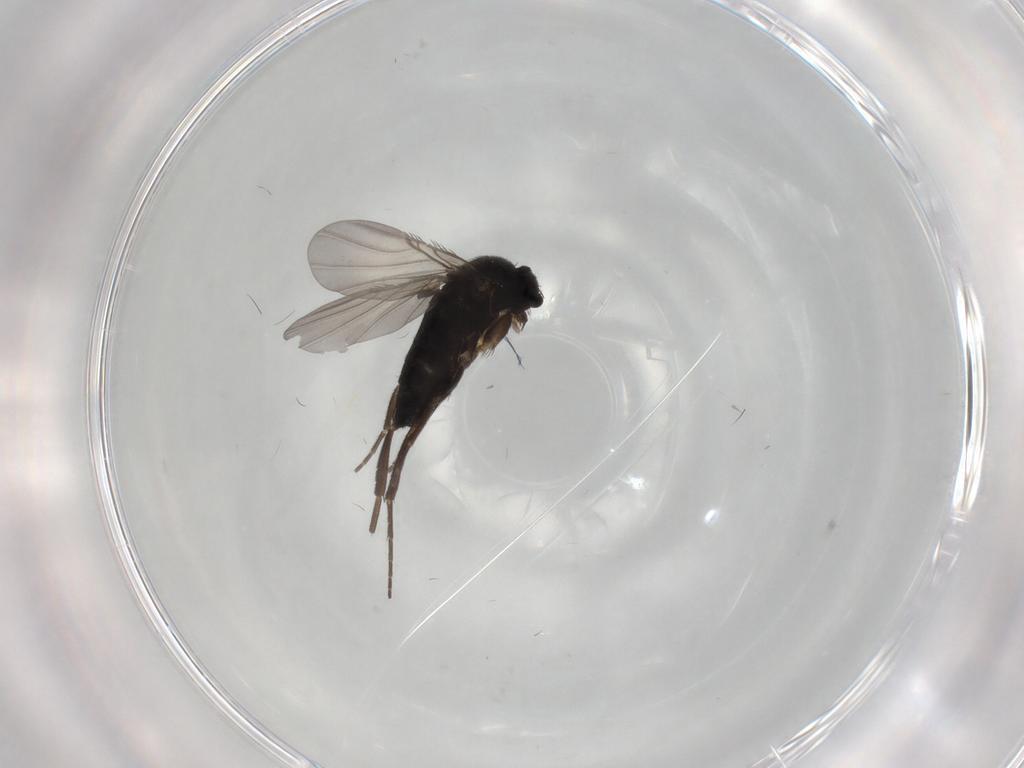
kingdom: Animalia
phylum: Arthropoda
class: Insecta
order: Diptera
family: Phoridae
